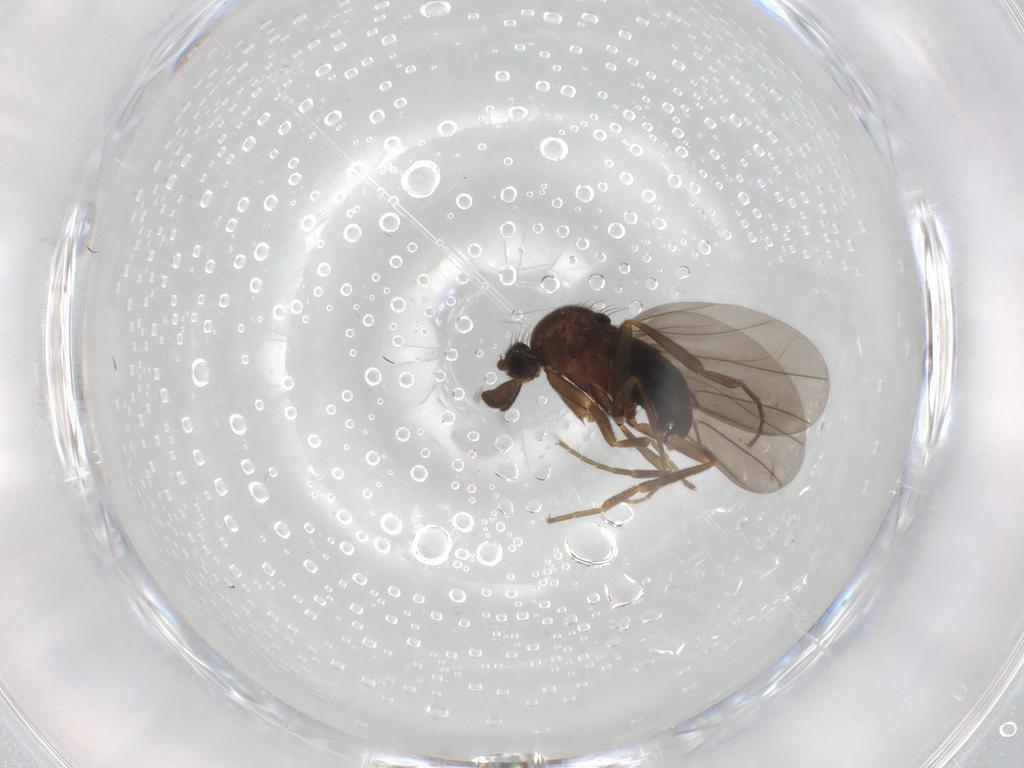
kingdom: Animalia
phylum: Arthropoda
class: Insecta
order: Diptera
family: Phoridae
